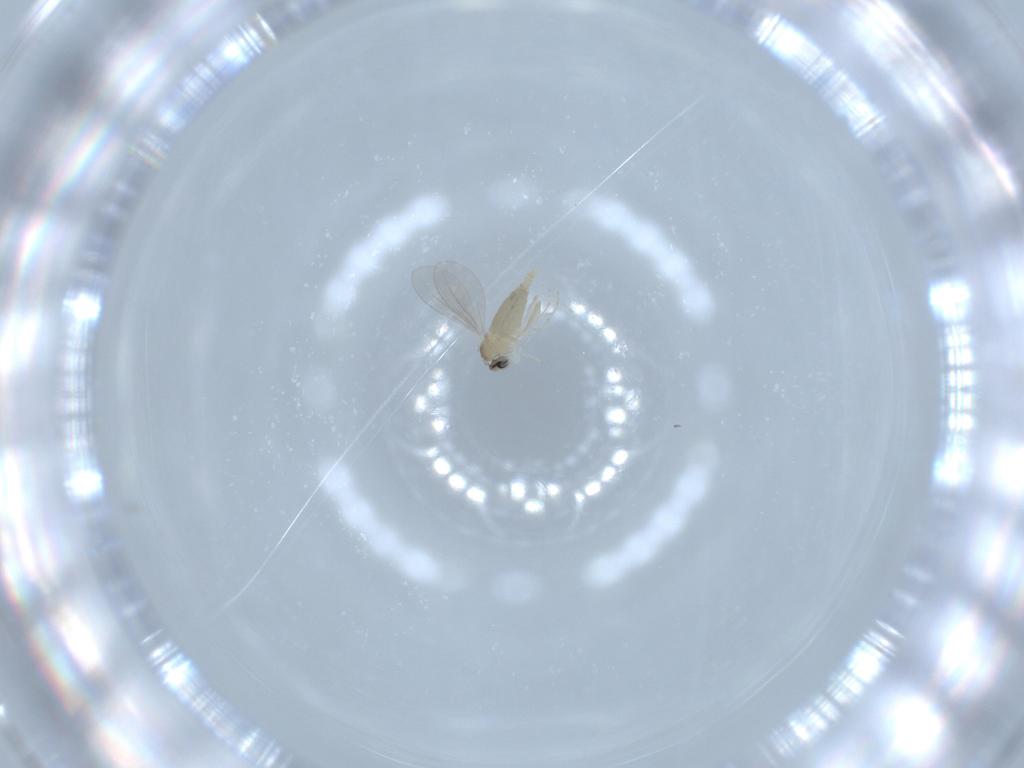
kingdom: Animalia
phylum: Arthropoda
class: Insecta
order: Diptera
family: Cecidomyiidae
